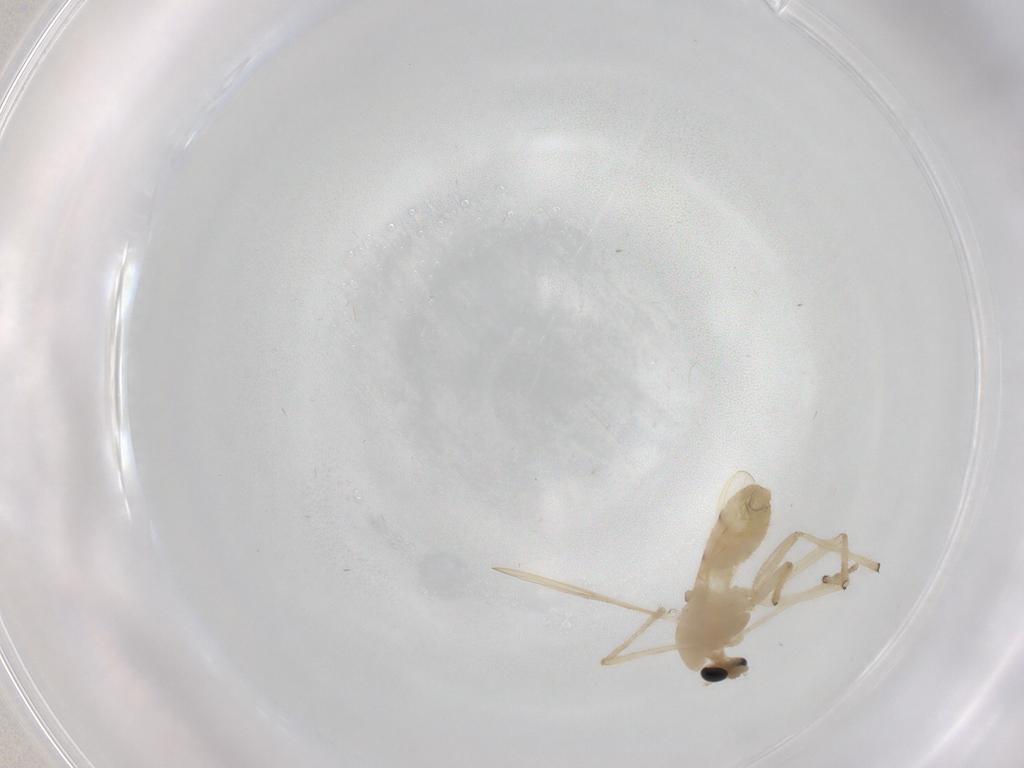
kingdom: Animalia
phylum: Arthropoda
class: Insecta
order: Diptera
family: Chironomidae
